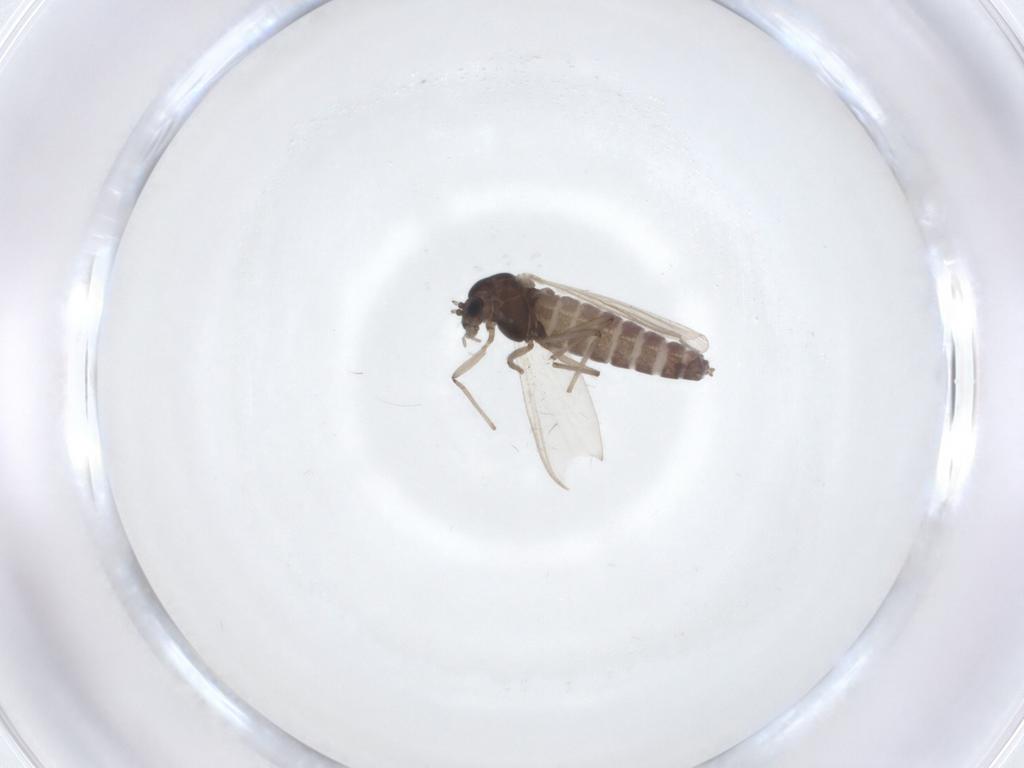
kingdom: Animalia
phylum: Arthropoda
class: Insecta
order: Diptera
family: Chironomidae
